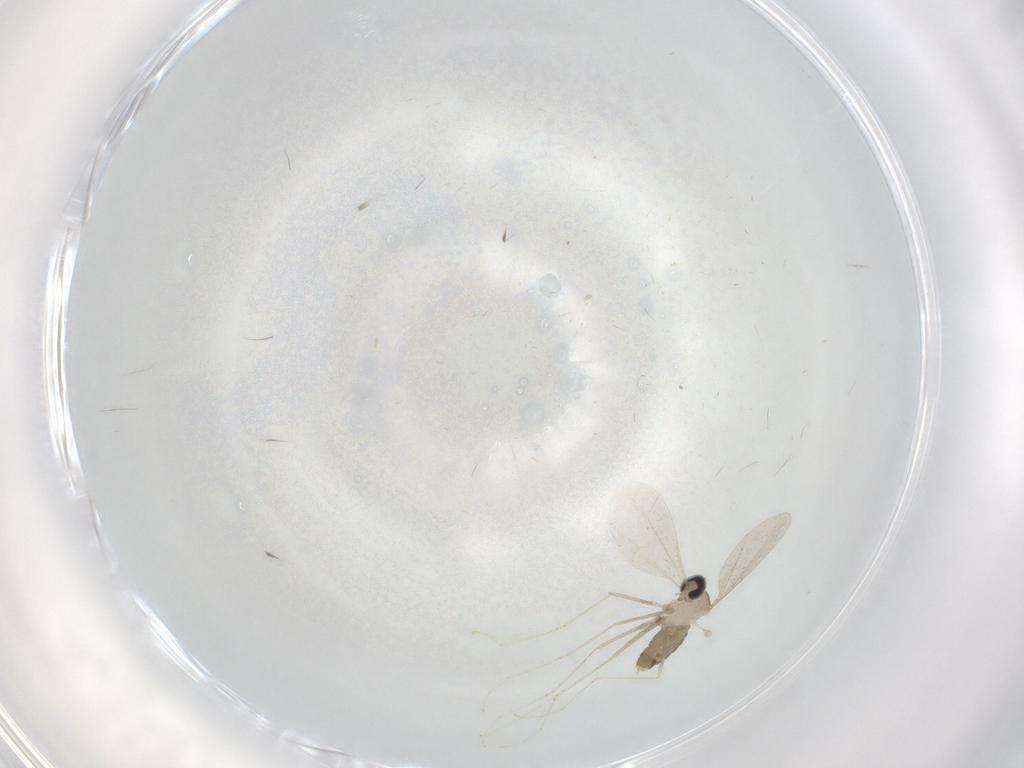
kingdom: Animalia
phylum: Arthropoda
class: Insecta
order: Diptera
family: Cecidomyiidae
